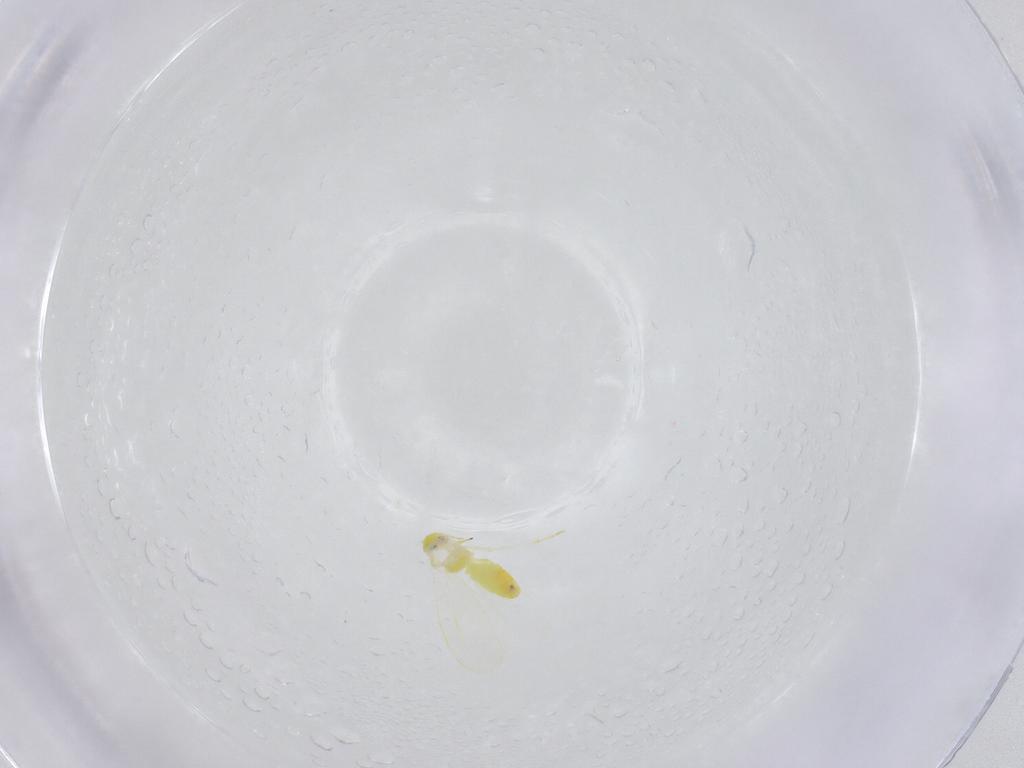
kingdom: Animalia
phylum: Arthropoda
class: Insecta
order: Hemiptera
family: Aleyrodidae
